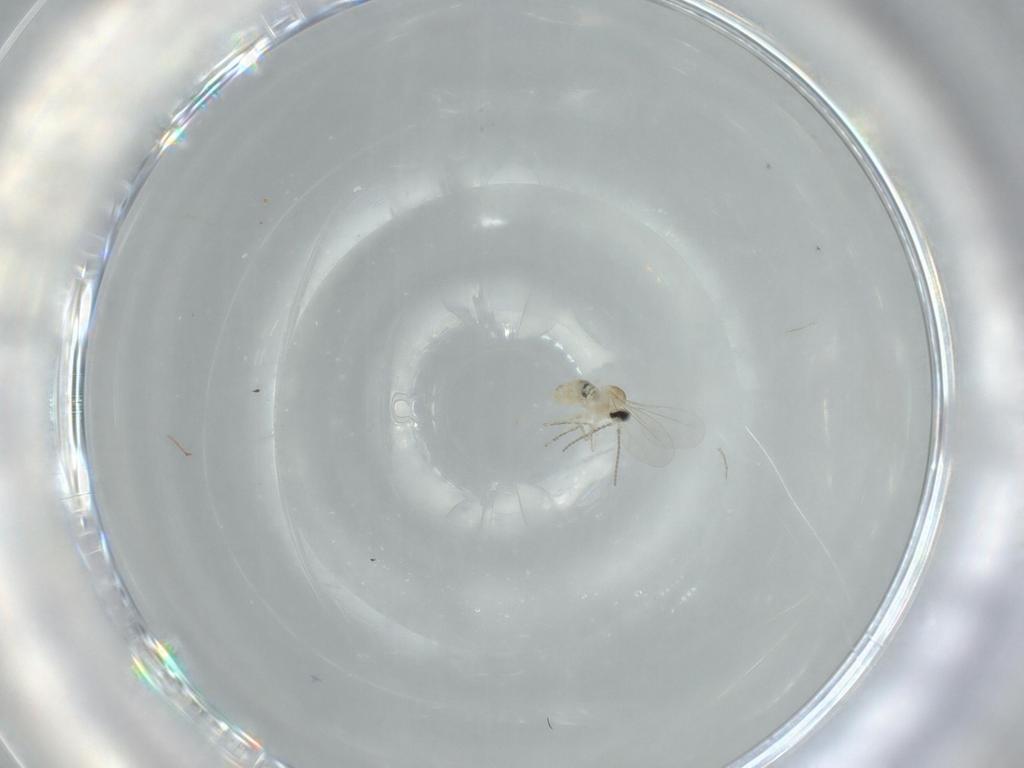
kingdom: Animalia
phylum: Arthropoda
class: Insecta
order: Diptera
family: Cecidomyiidae
